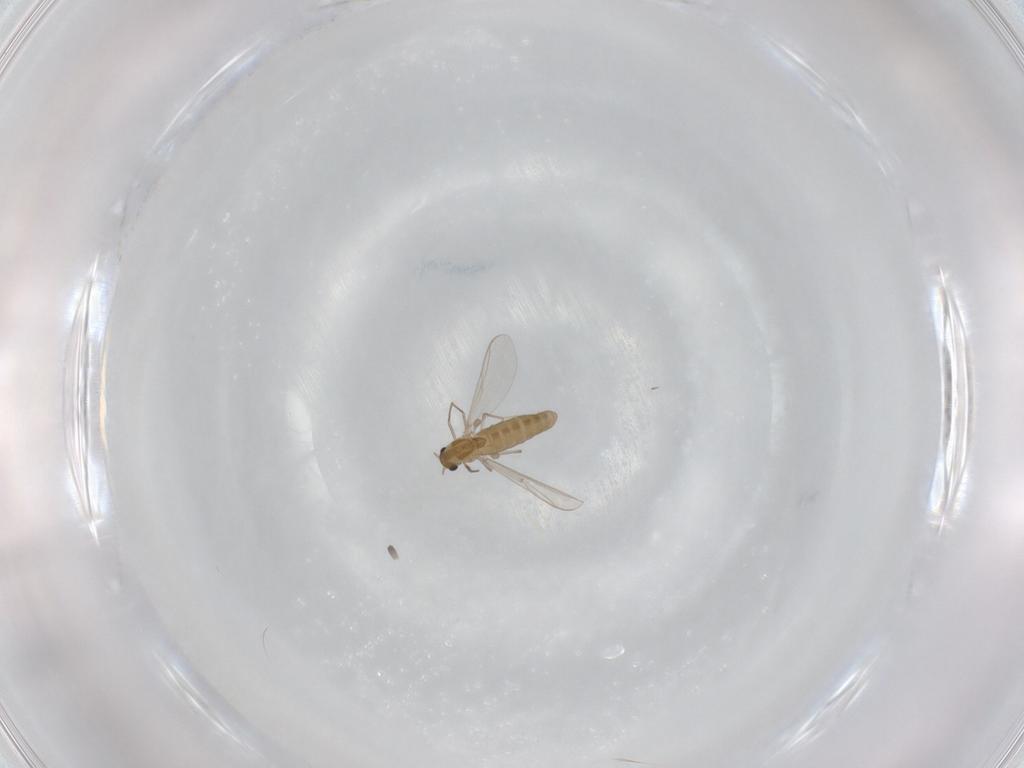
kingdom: Animalia
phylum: Arthropoda
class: Insecta
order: Diptera
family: Chironomidae
